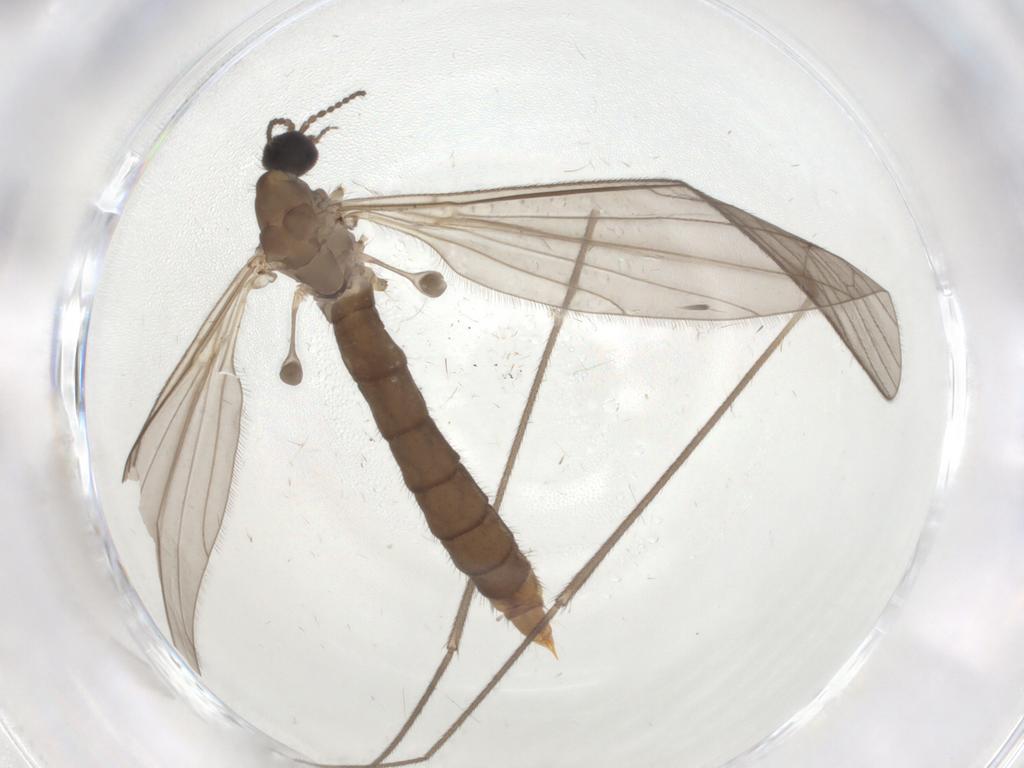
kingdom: Animalia
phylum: Arthropoda
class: Insecta
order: Diptera
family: Limoniidae
